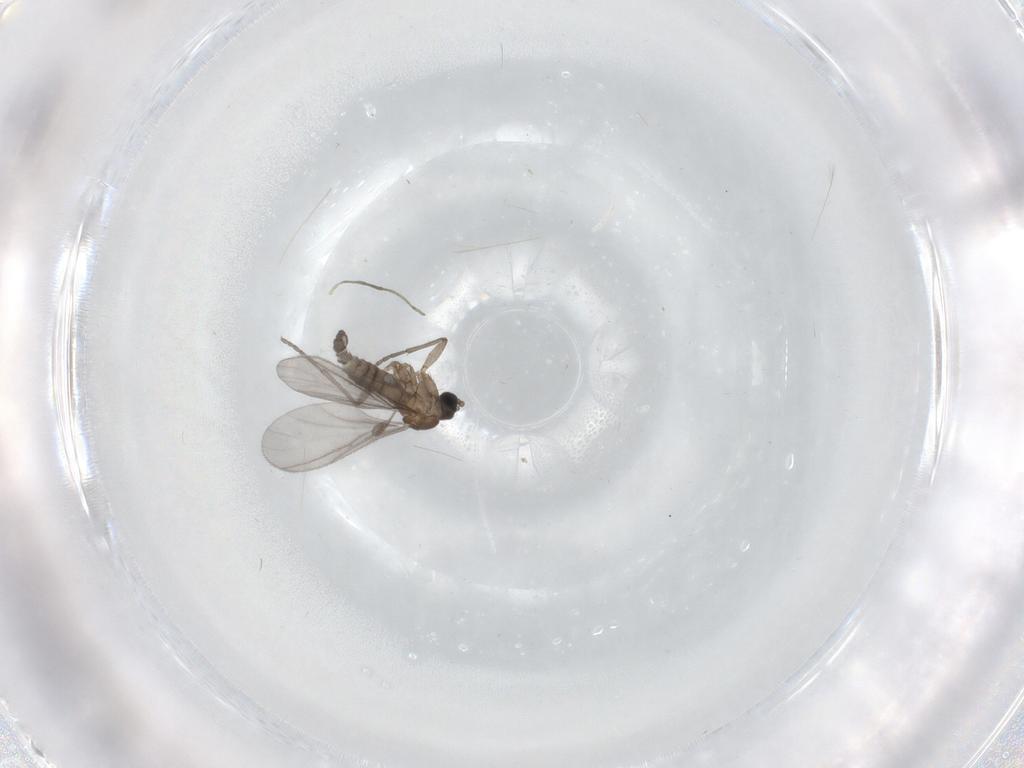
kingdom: Animalia
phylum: Arthropoda
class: Insecta
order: Diptera
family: Sciaridae
